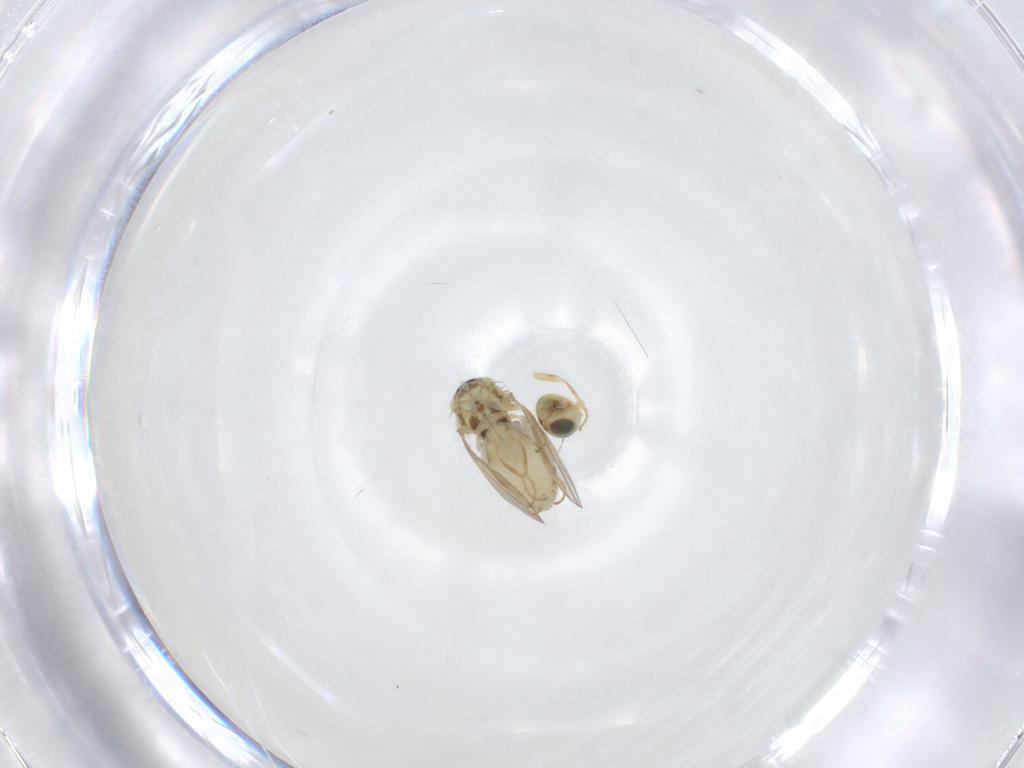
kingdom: Animalia
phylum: Arthropoda
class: Insecta
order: Diptera
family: Chyromyidae
